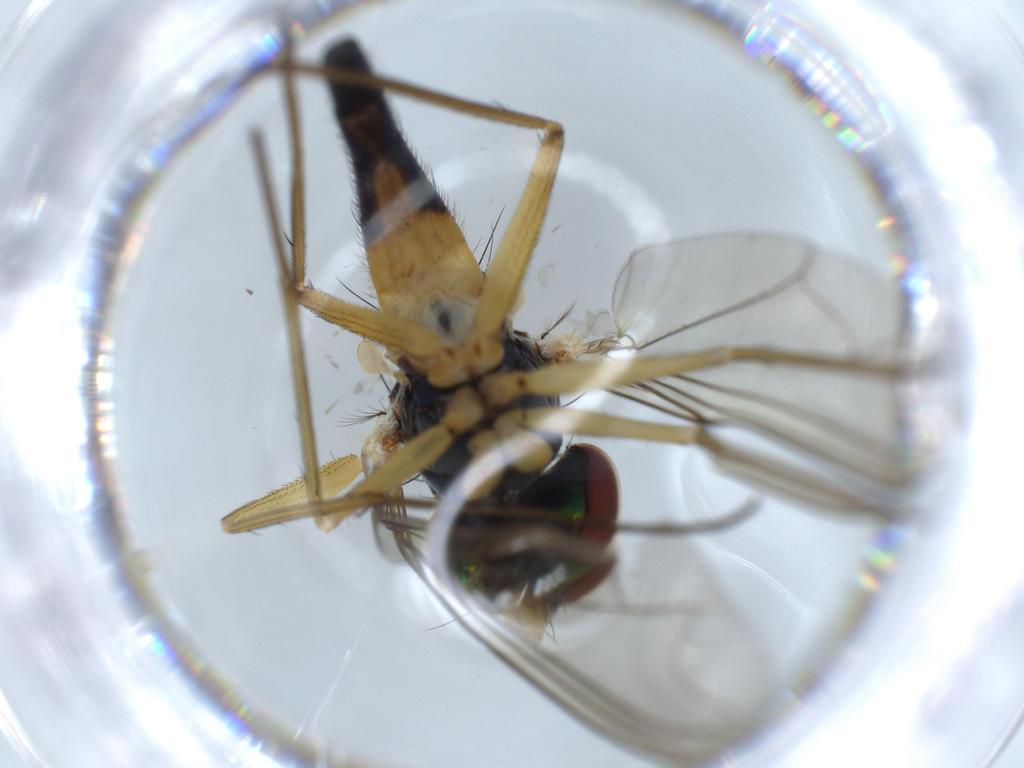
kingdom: Animalia
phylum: Arthropoda
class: Insecta
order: Diptera
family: Dolichopodidae
